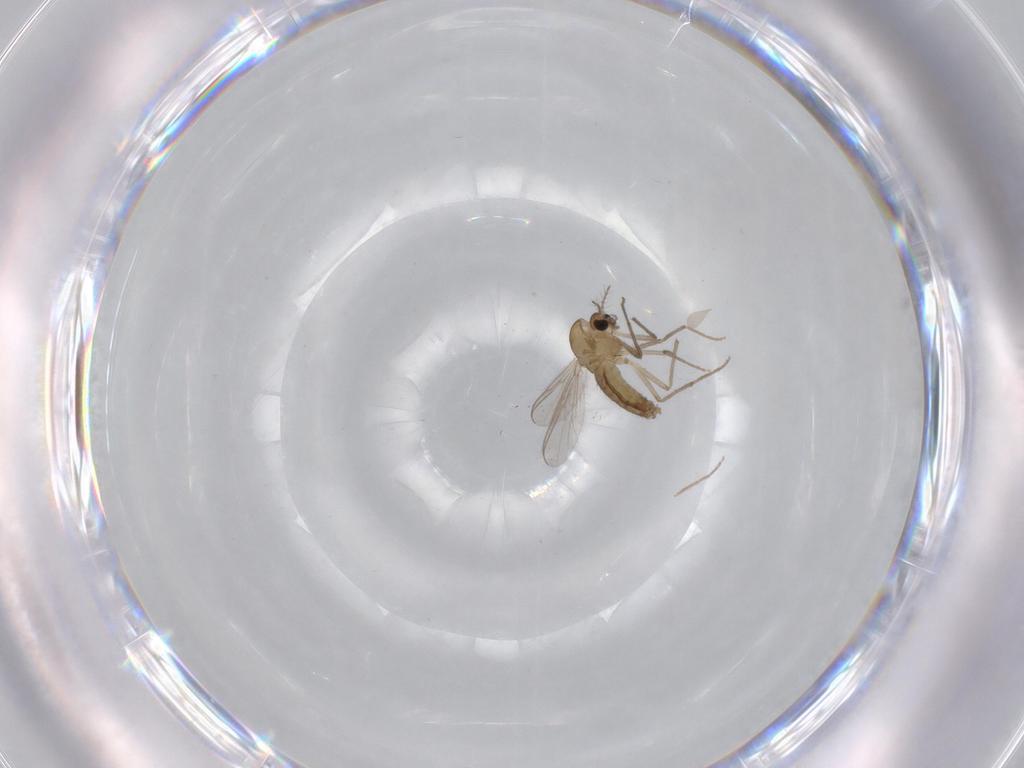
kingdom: Animalia
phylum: Arthropoda
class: Insecta
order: Diptera
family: Chironomidae
